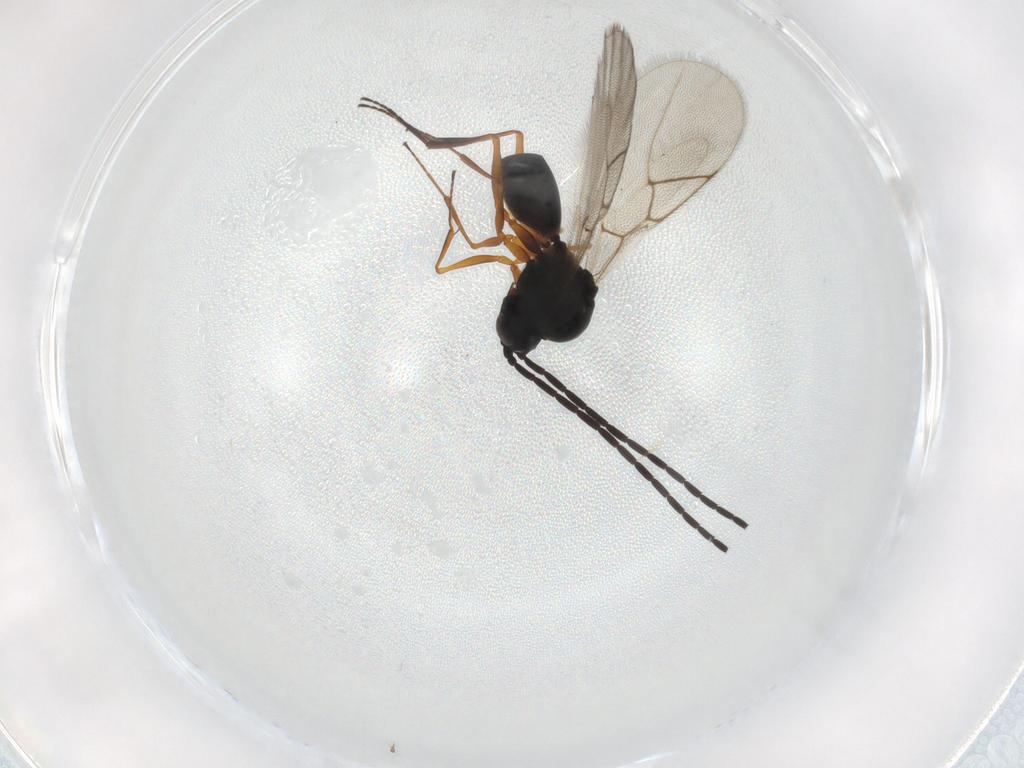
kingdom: Animalia
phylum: Arthropoda
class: Insecta
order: Hymenoptera
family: Figitidae
